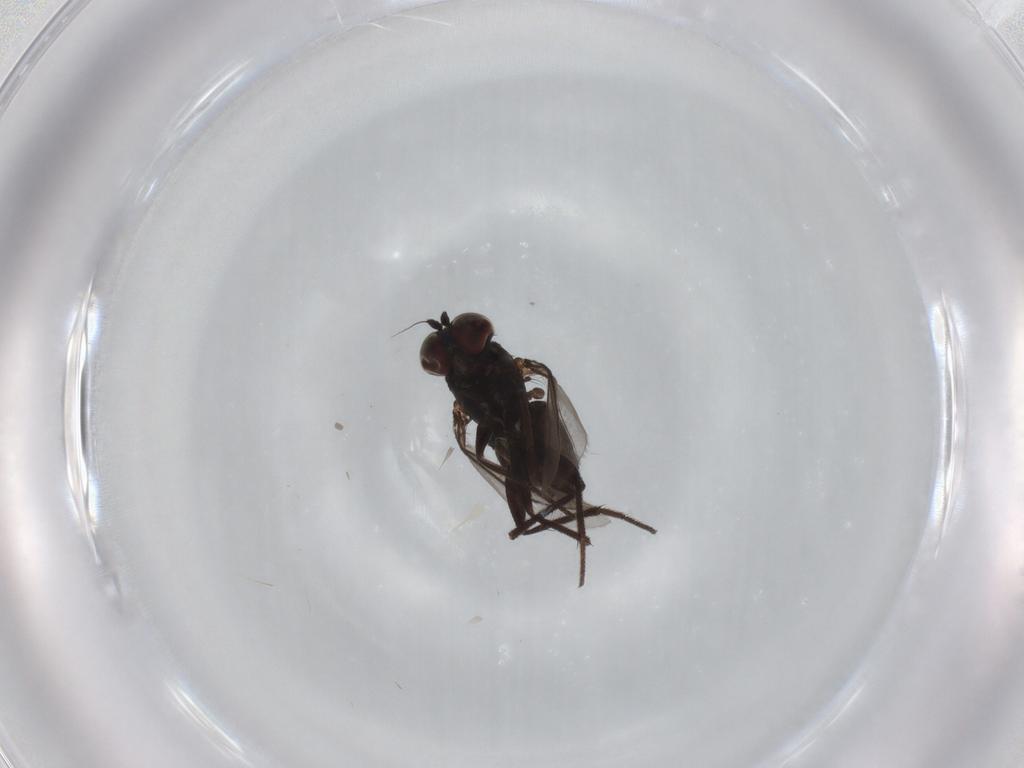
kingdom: Animalia
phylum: Arthropoda
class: Insecta
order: Diptera
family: Dolichopodidae
